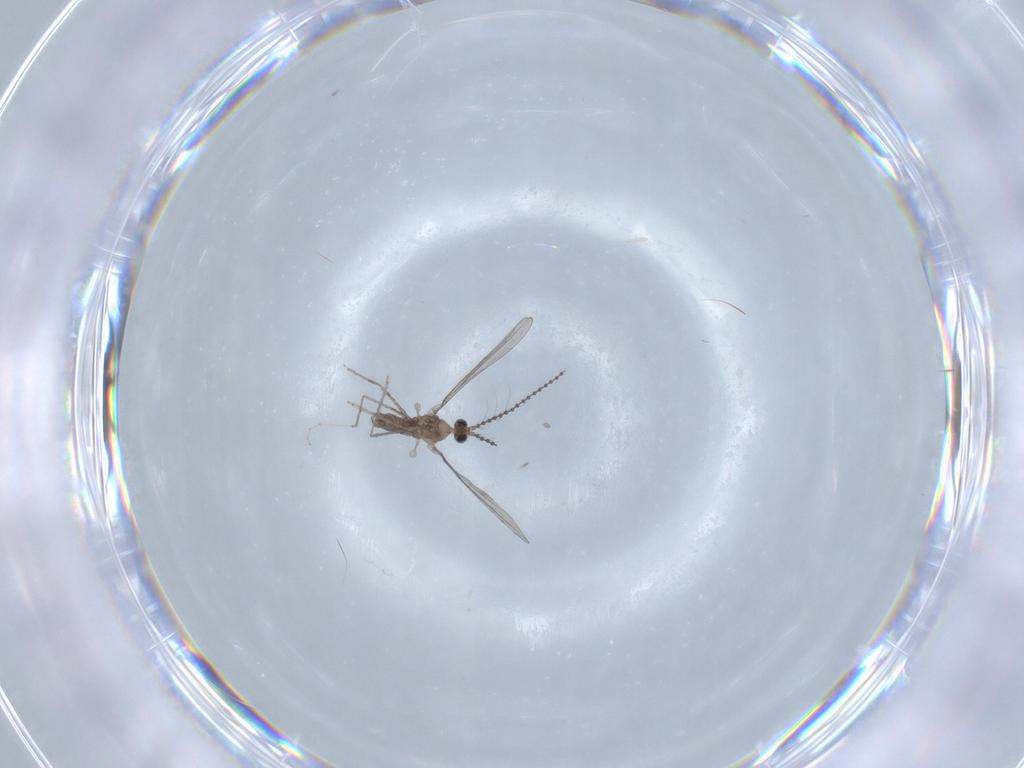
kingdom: Animalia
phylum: Arthropoda
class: Insecta
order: Diptera
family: Cecidomyiidae
